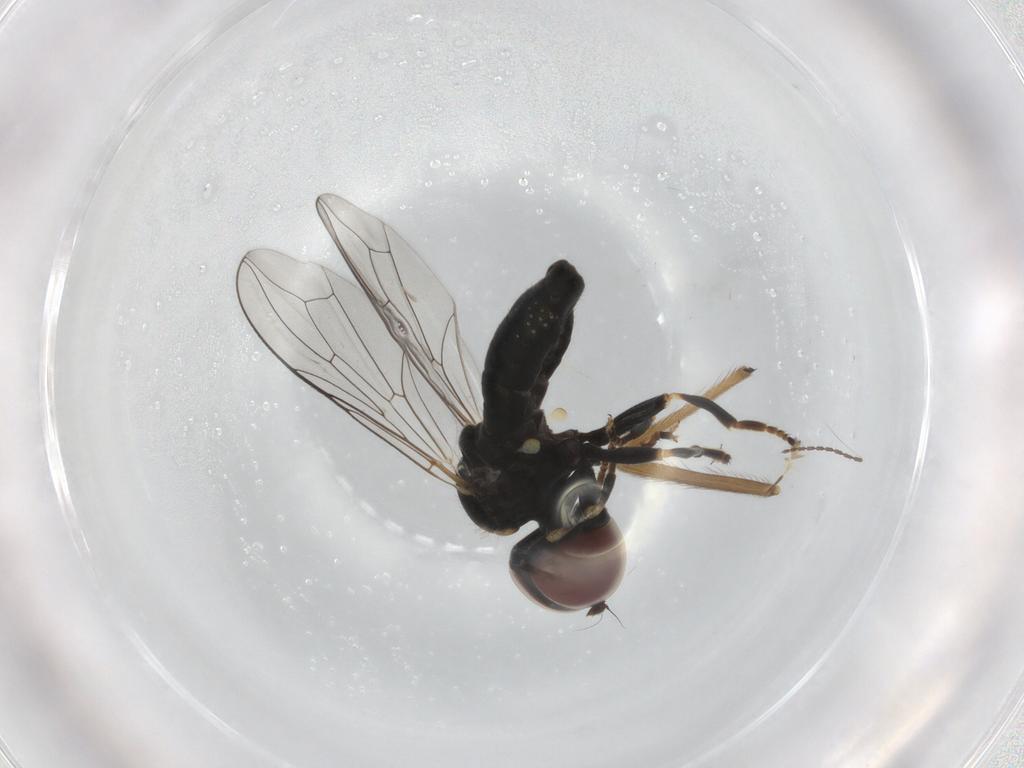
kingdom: Animalia
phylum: Arthropoda
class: Insecta
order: Diptera
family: Pipunculidae
